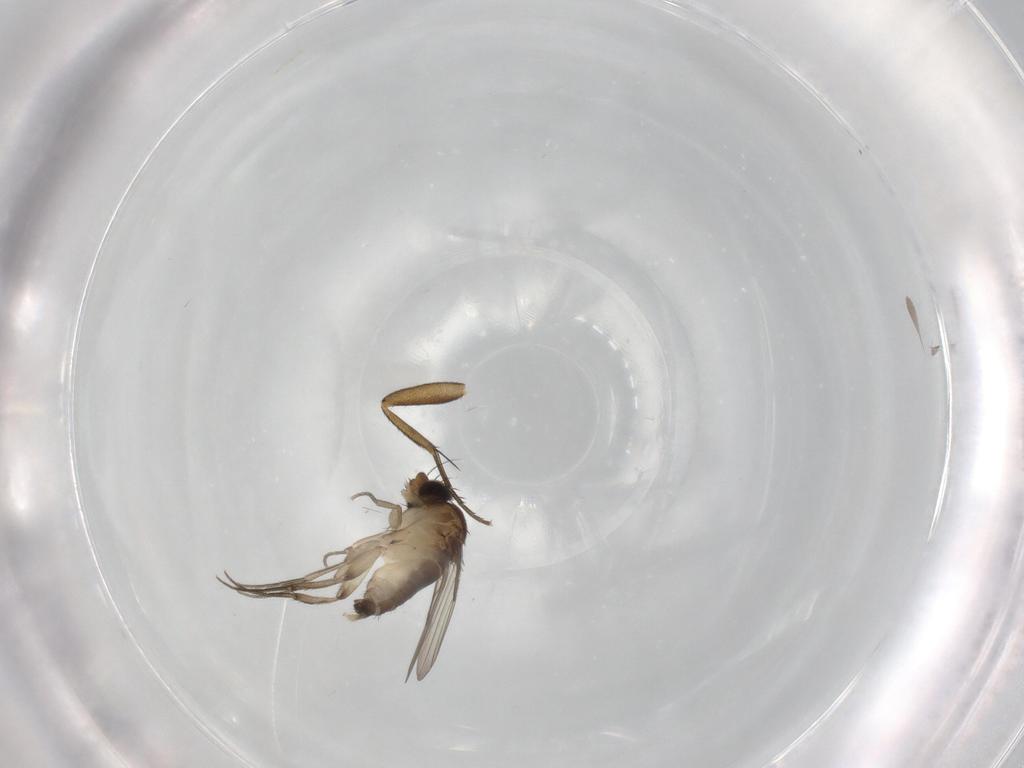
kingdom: Animalia
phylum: Arthropoda
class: Insecta
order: Diptera
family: Phoridae
